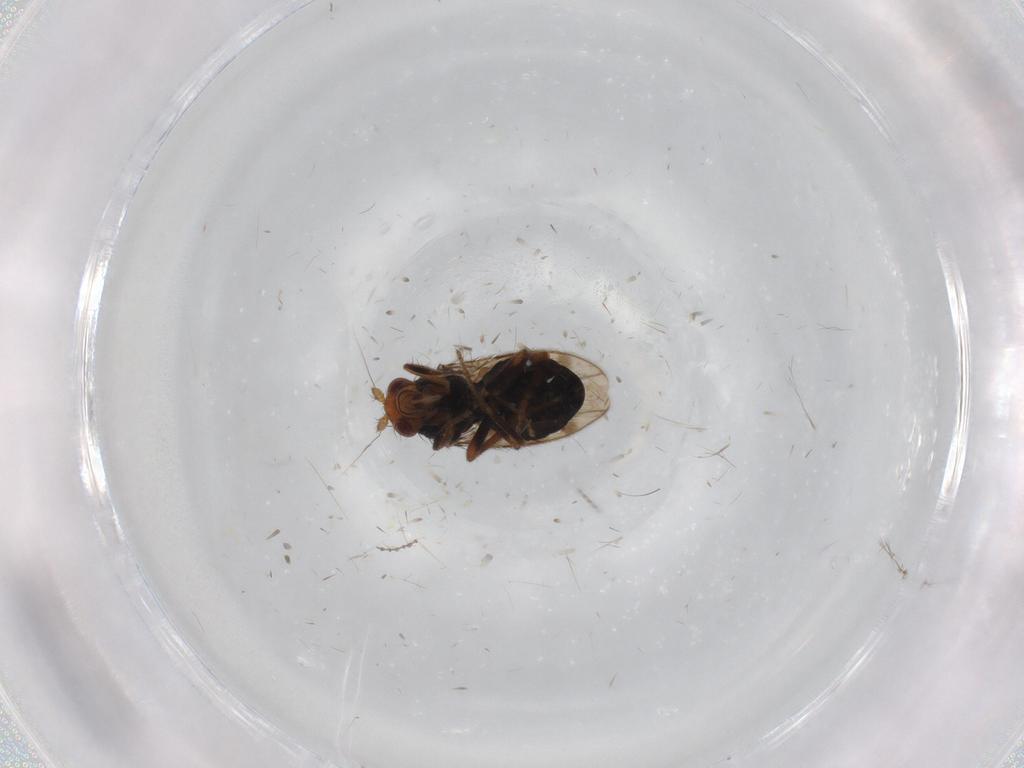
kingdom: Animalia
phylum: Arthropoda
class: Insecta
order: Diptera
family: Sphaeroceridae
